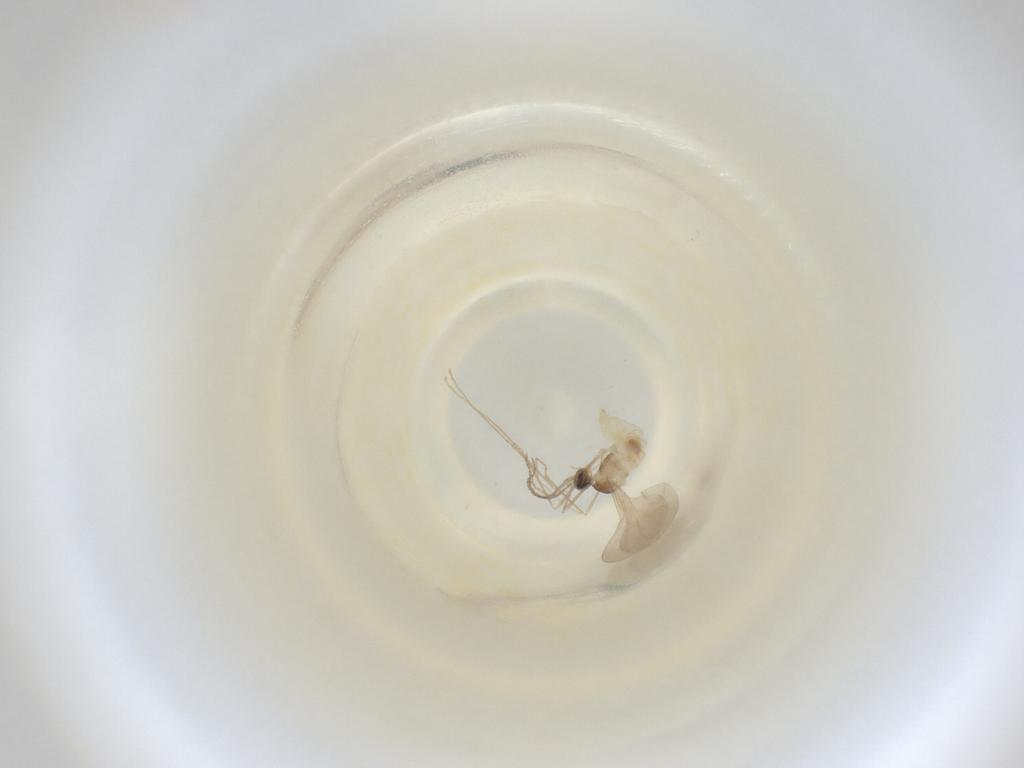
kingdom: Animalia
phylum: Arthropoda
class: Insecta
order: Diptera
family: Cecidomyiidae
